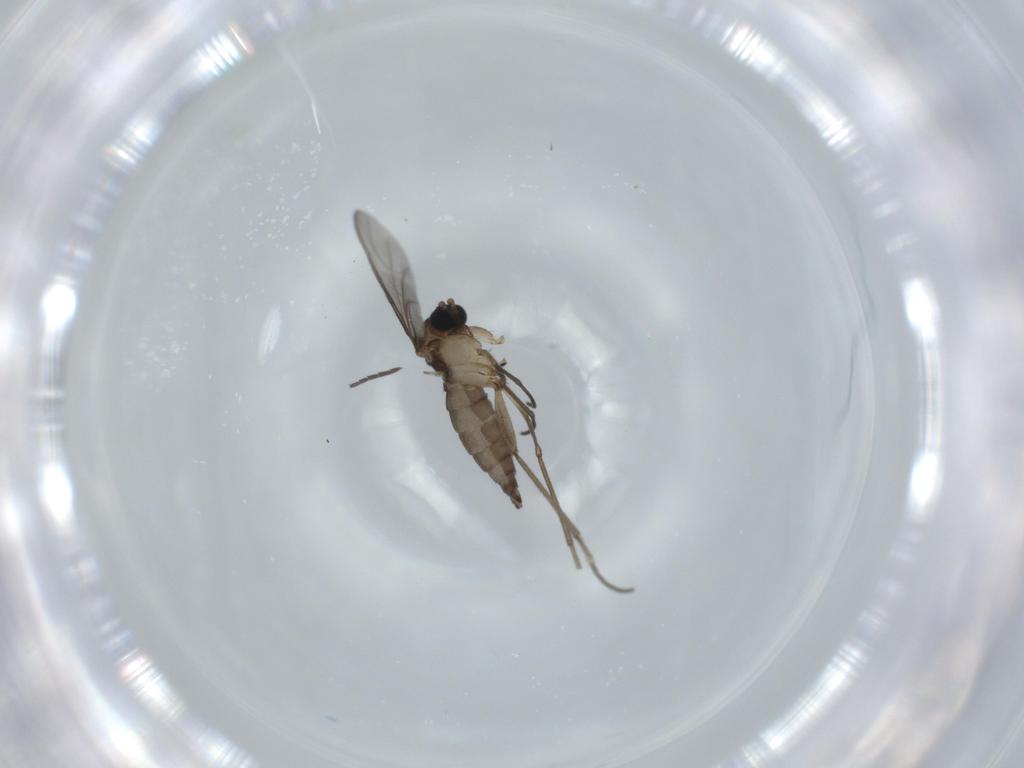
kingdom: Animalia
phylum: Arthropoda
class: Insecta
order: Diptera
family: Sciaridae
